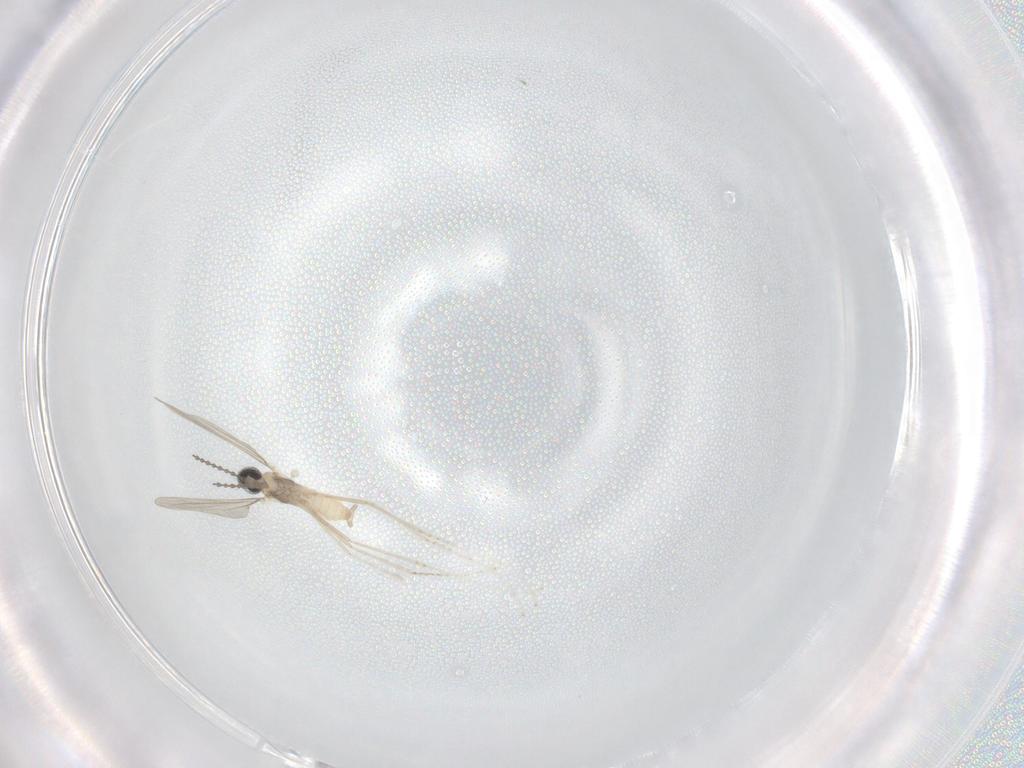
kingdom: Animalia
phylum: Arthropoda
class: Insecta
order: Diptera
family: Cecidomyiidae
